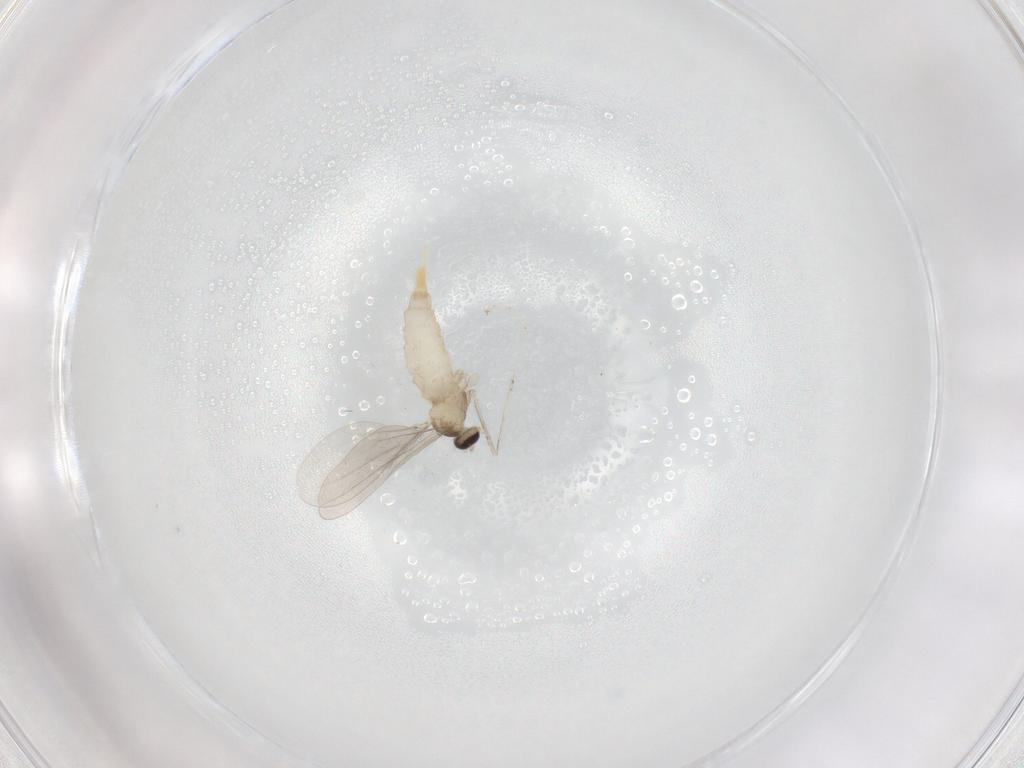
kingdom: Animalia
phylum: Arthropoda
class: Insecta
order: Diptera
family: Cecidomyiidae
